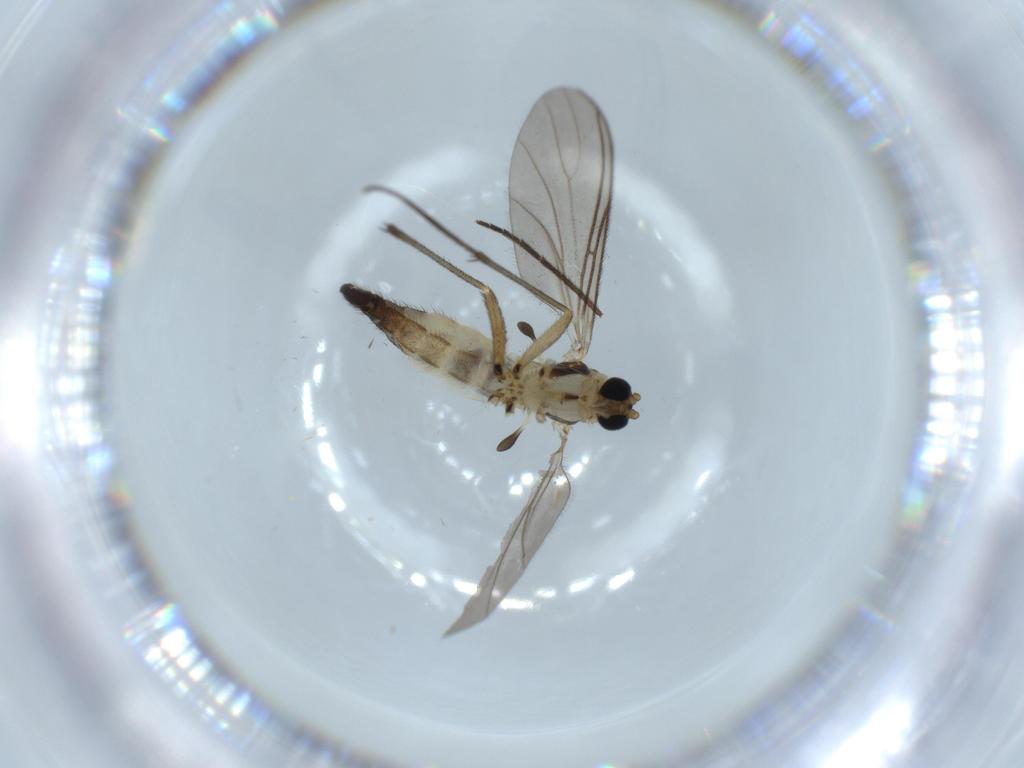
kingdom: Animalia
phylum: Arthropoda
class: Insecta
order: Diptera
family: Sciaridae
